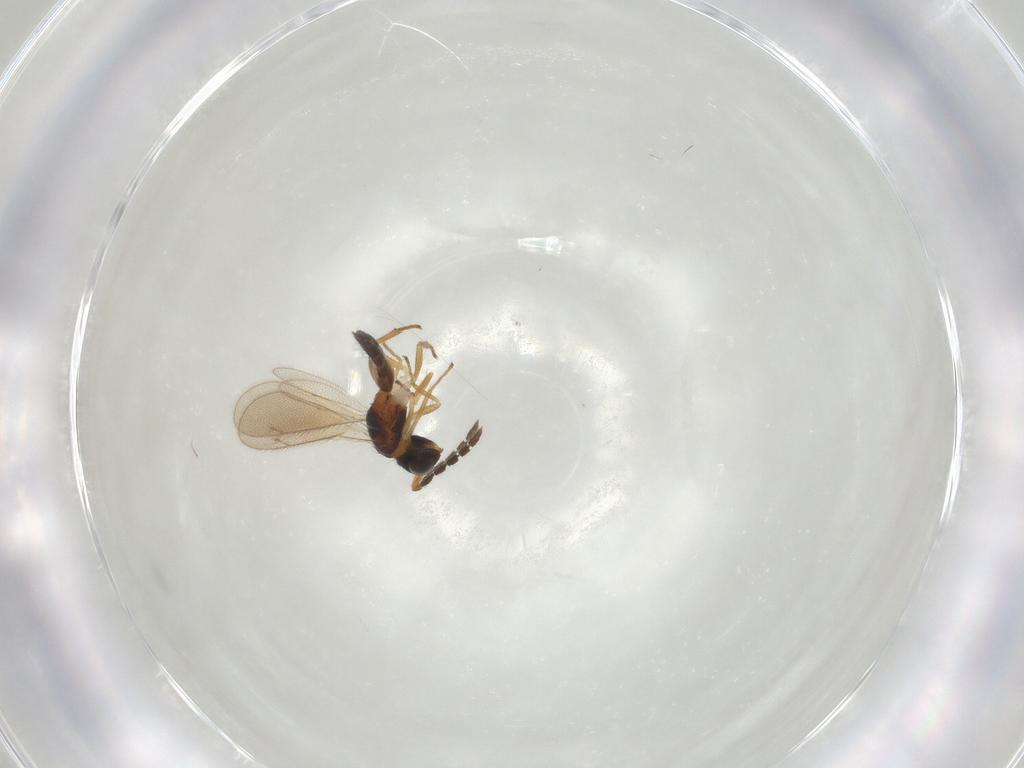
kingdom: Animalia
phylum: Arthropoda
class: Insecta
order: Hymenoptera
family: Eulophidae
